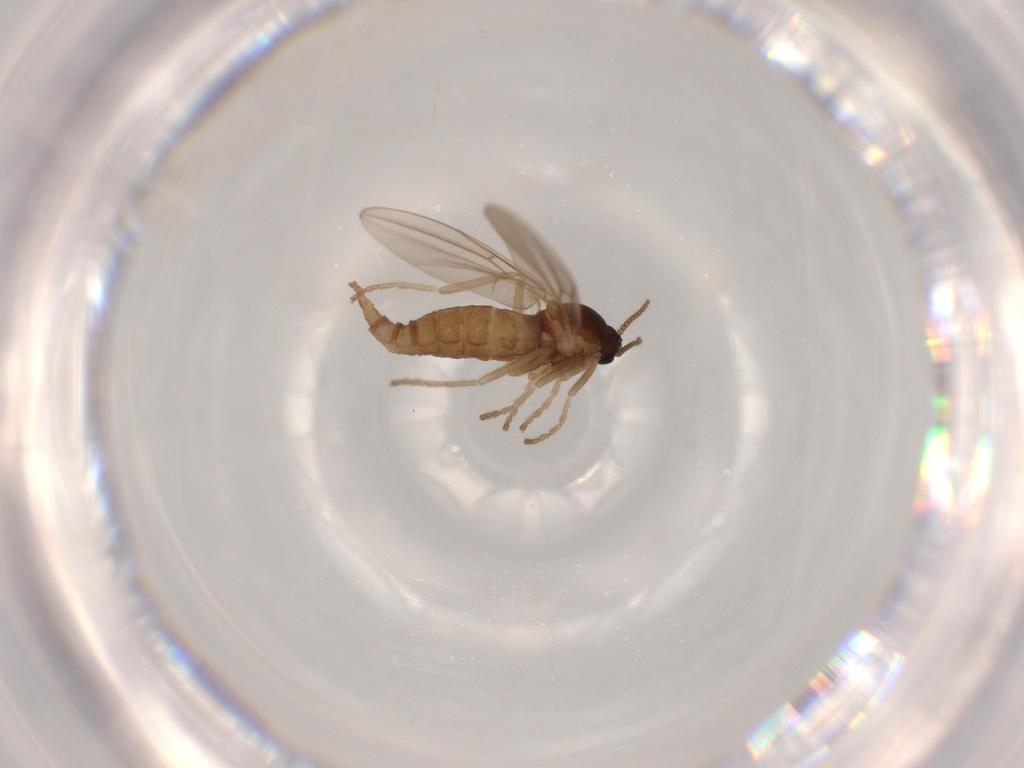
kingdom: Animalia
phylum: Arthropoda
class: Insecta
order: Diptera
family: Cecidomyiidae
